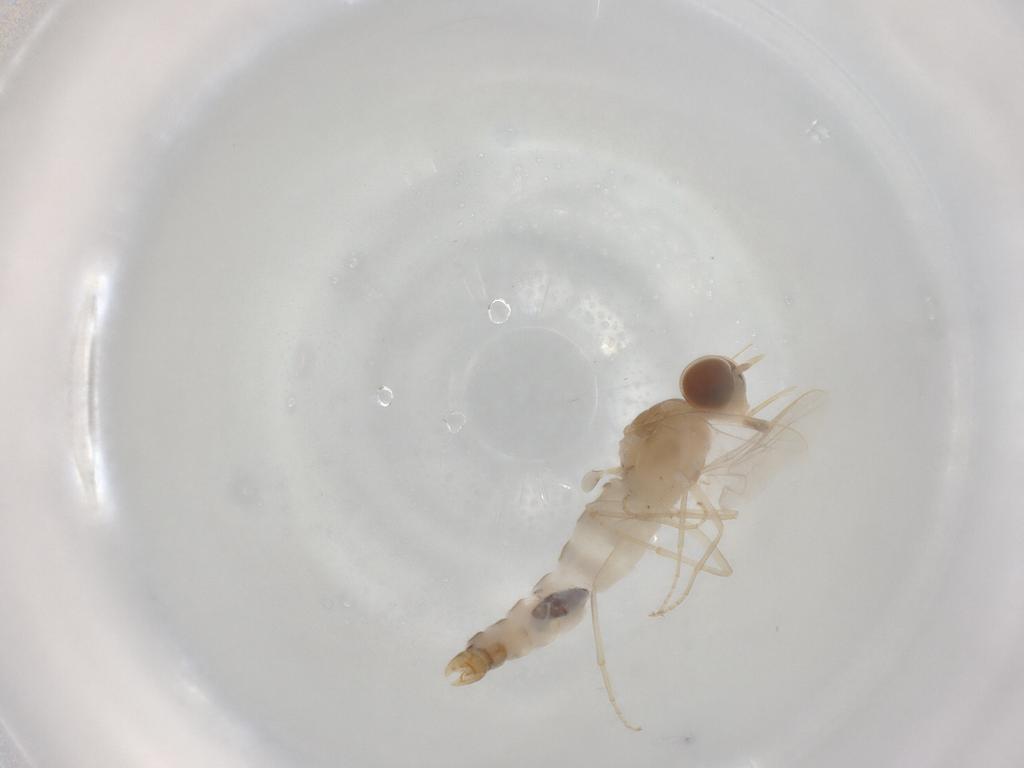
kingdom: Animalia
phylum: Arthropoda
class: Insecta
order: Diptera
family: Scenopinidae
